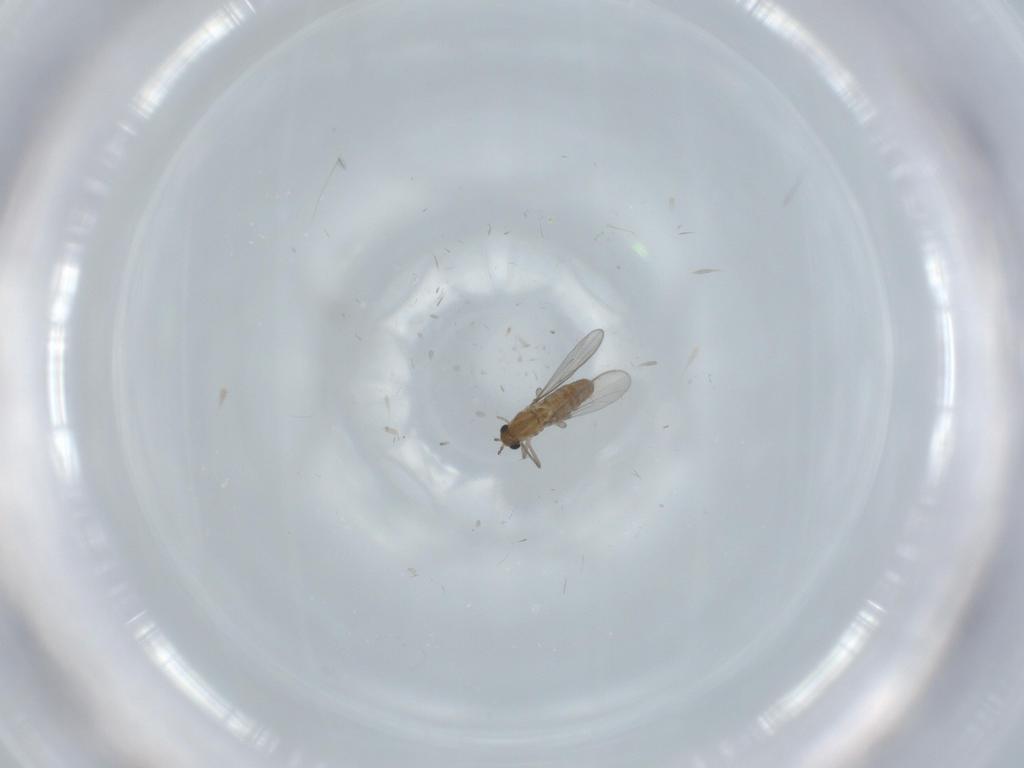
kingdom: Animalia
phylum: Arthropoda
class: Insecta
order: Diptera
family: Chironomidae
